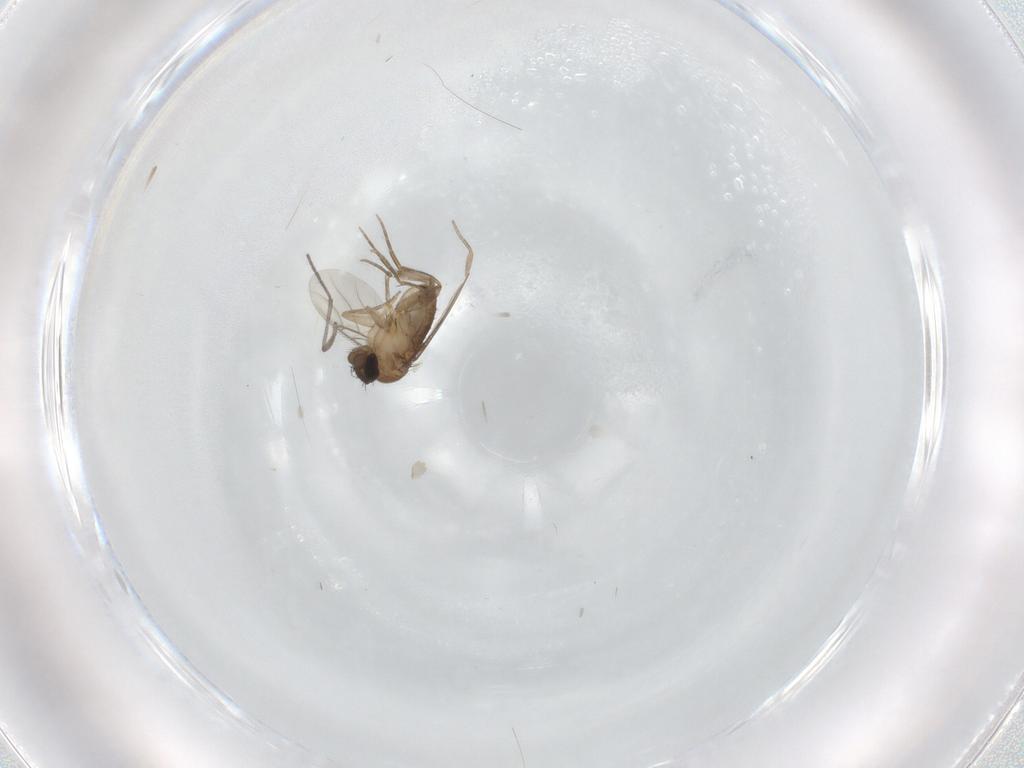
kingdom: Animalia
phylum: Arthropoda
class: Insecta
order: Diptera
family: Phoridae
